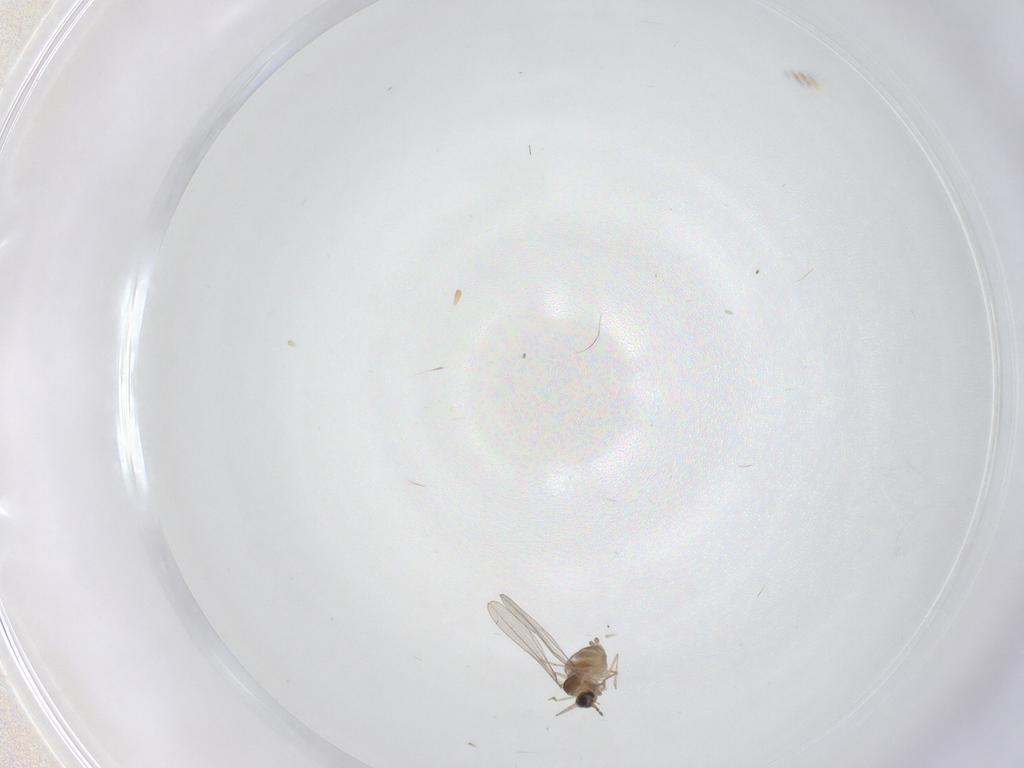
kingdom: Animalia
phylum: Arthropoda
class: Insecta
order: Diptera
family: Cecidomyiidae
